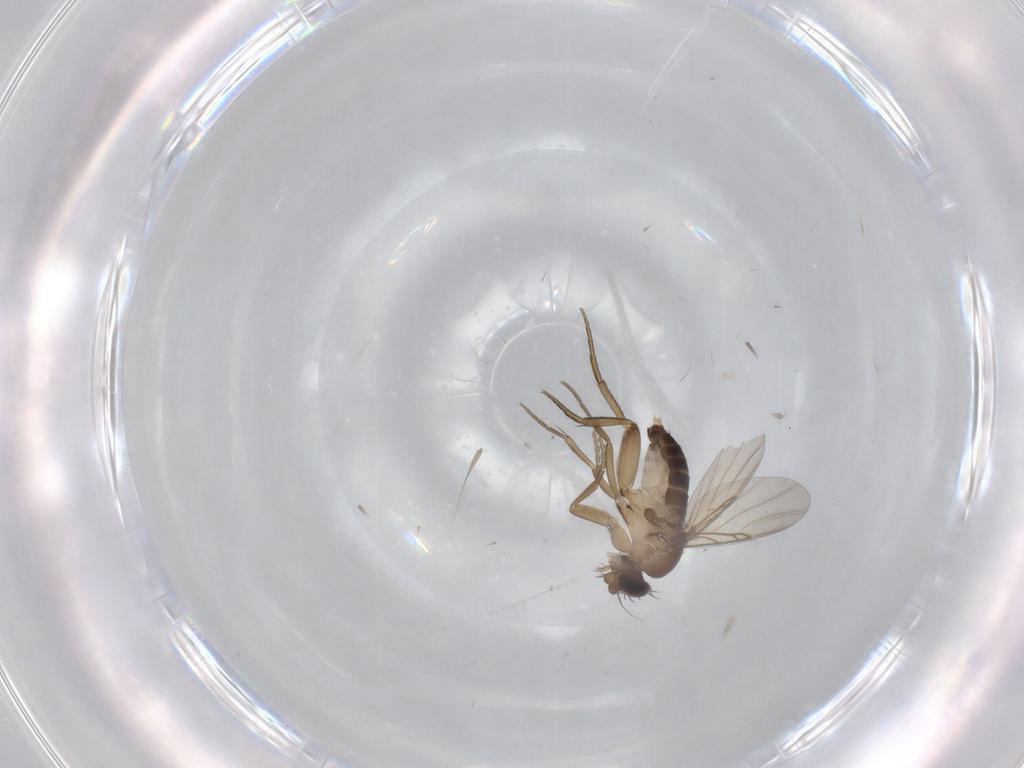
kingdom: Animalia
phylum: Arthropoda
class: Insecta
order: Diptera
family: Phoridae
